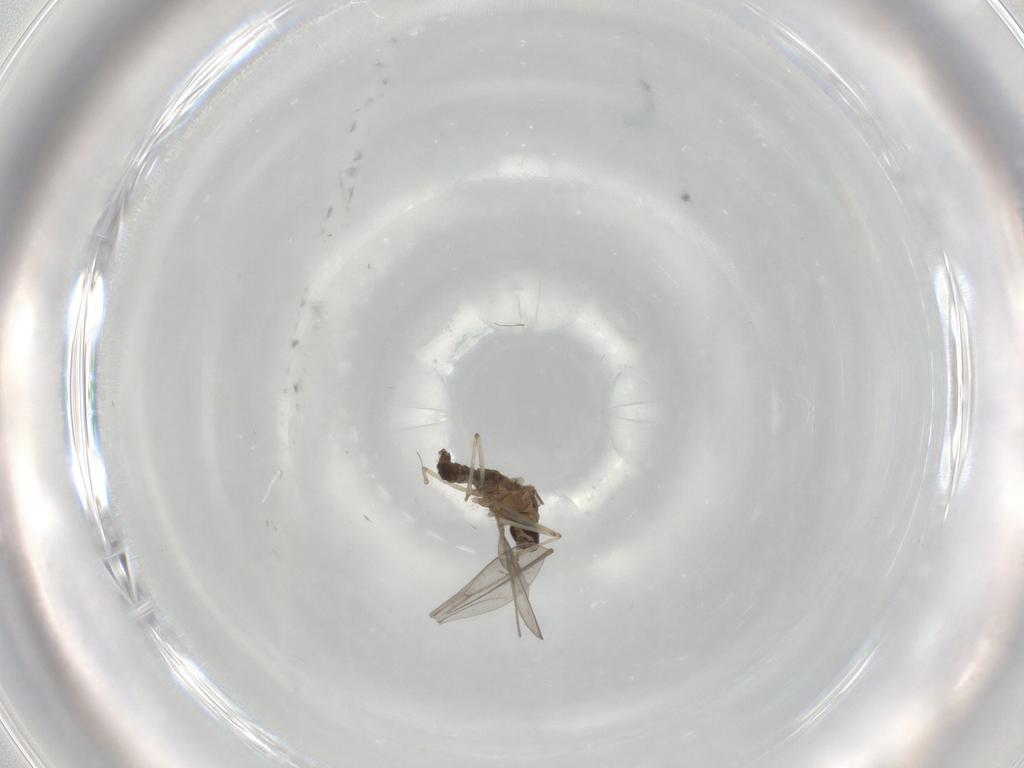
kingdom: Animalia
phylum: Arthropoda
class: Insecta
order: Diptera
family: Cecidomyiidae
